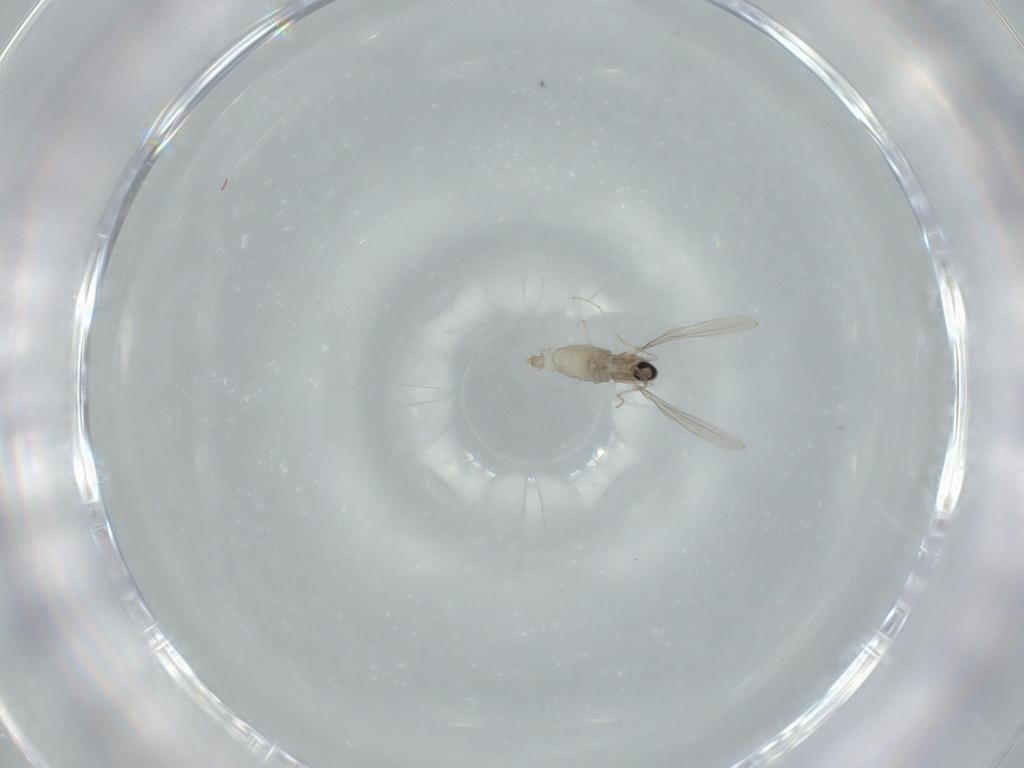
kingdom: Animalia
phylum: Arthropoda
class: Insecta
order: Diptera
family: Cecidomyiidae
